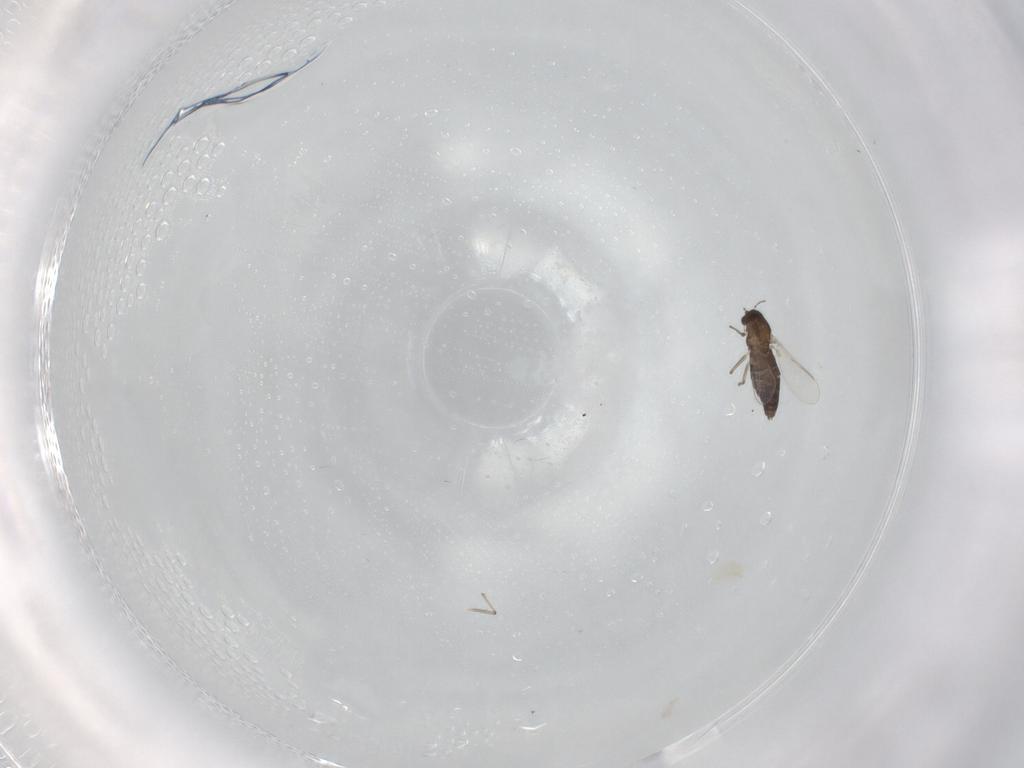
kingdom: Animalia
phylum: Arthropoda
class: Insecta
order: Diptera
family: Chironomidae
